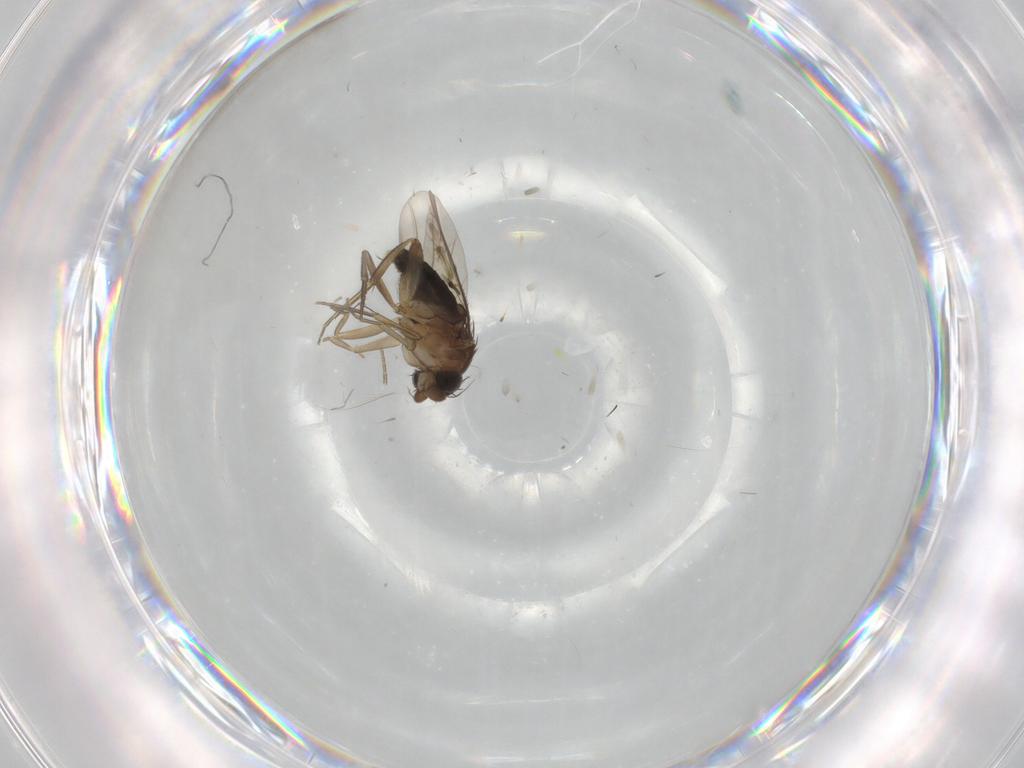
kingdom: Animalia
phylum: Arthropoda
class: Insecta
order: Diptera
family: Phoridae
